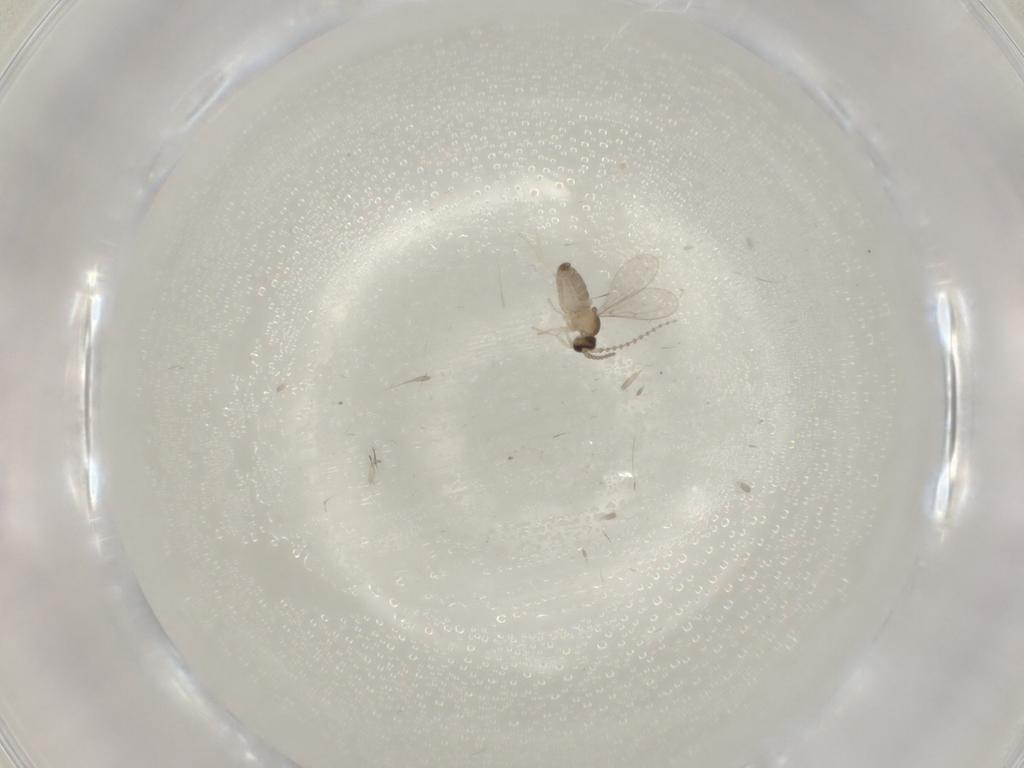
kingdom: Animalia
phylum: Arthropoda
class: Insecta
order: Diptera
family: Cecidomyiidae
